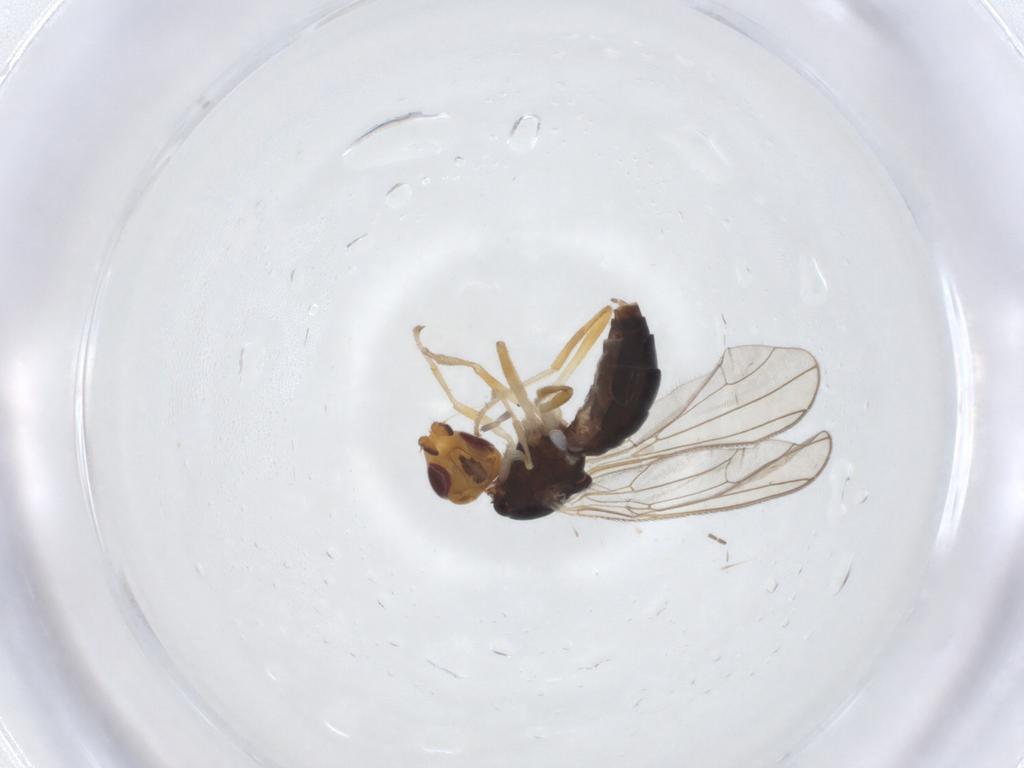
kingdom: Animalia
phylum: Arthropoda
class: Insecta
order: Diptera
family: Sciaridae
